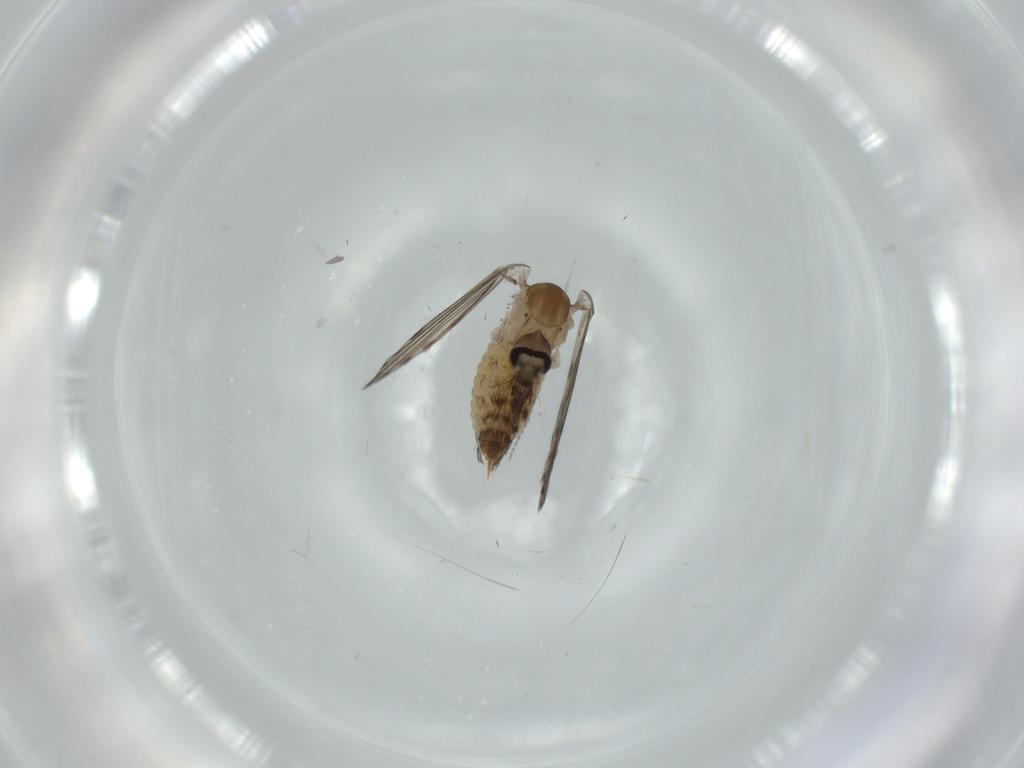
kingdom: Animalia
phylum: Arthropoda
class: Insecta
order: Diptera
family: Psychodidae
